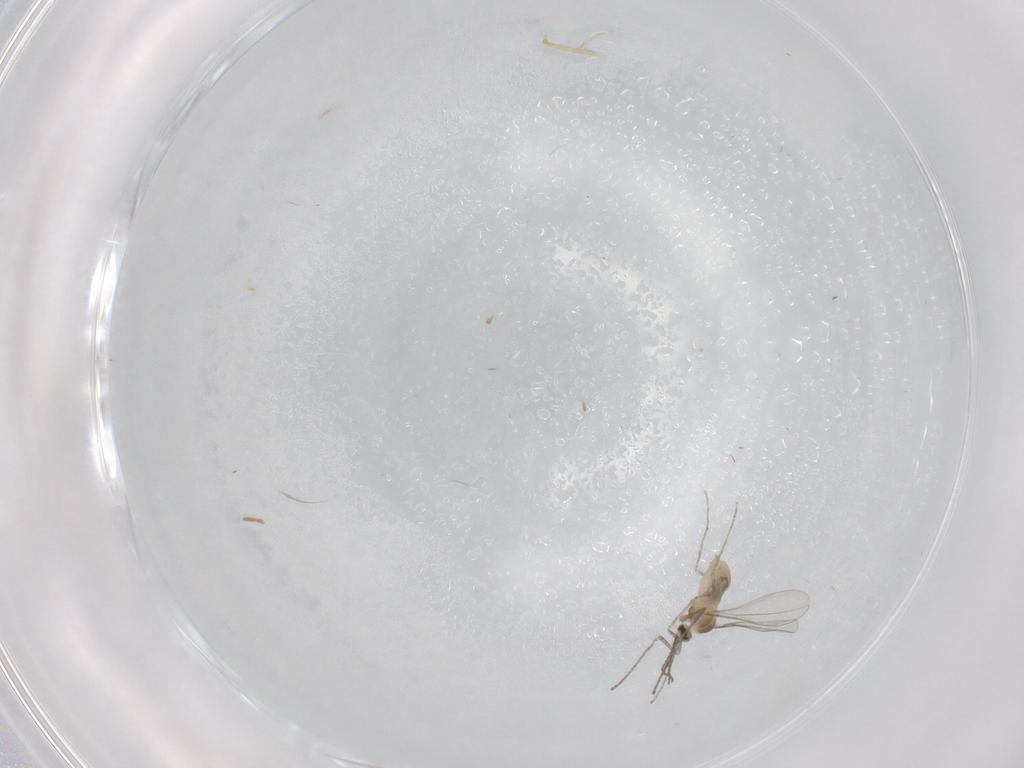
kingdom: Animalia
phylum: Arthropoda
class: Insecta
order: Diptera
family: Cecidomyiidae
